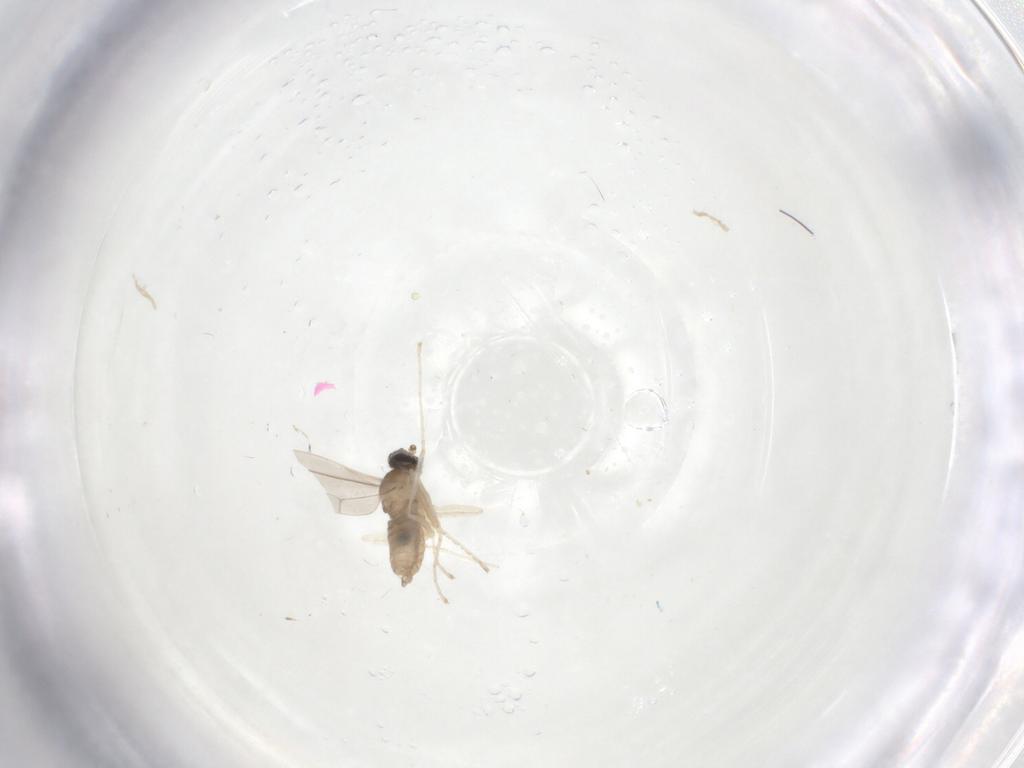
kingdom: Animalia
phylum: Arthropoda
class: Insecta
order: Diptera
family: Cecidomyiidae
